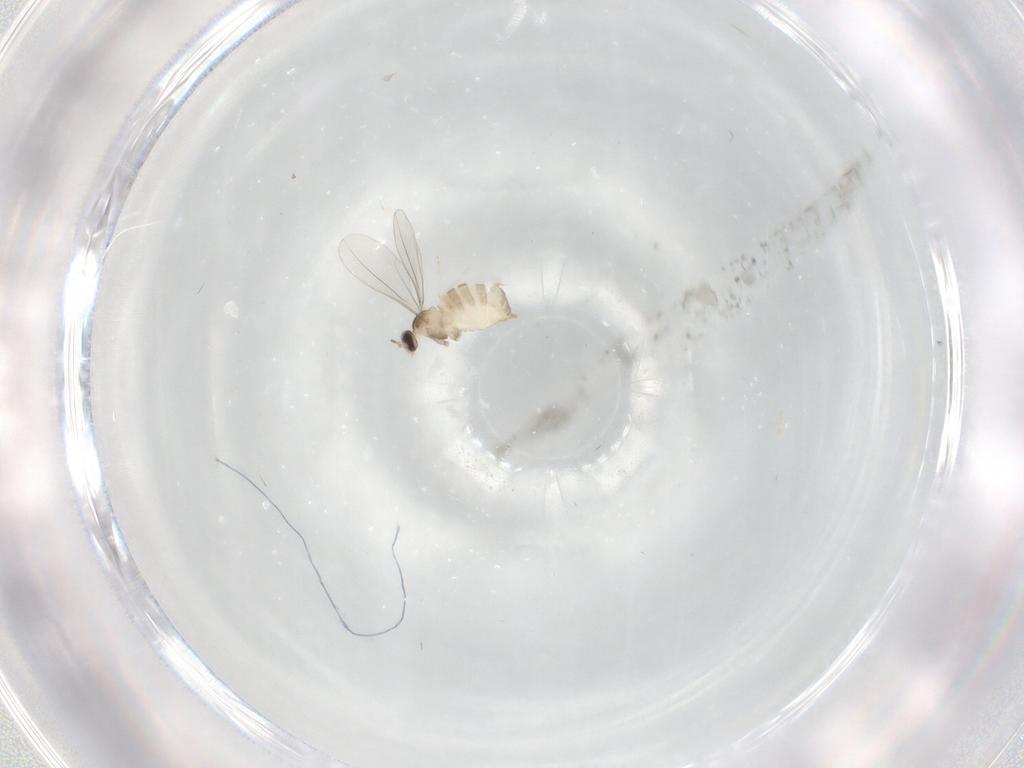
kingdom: Animalia
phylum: Arthropoda
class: Insecta
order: Diptera
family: Cecidomyiidae
